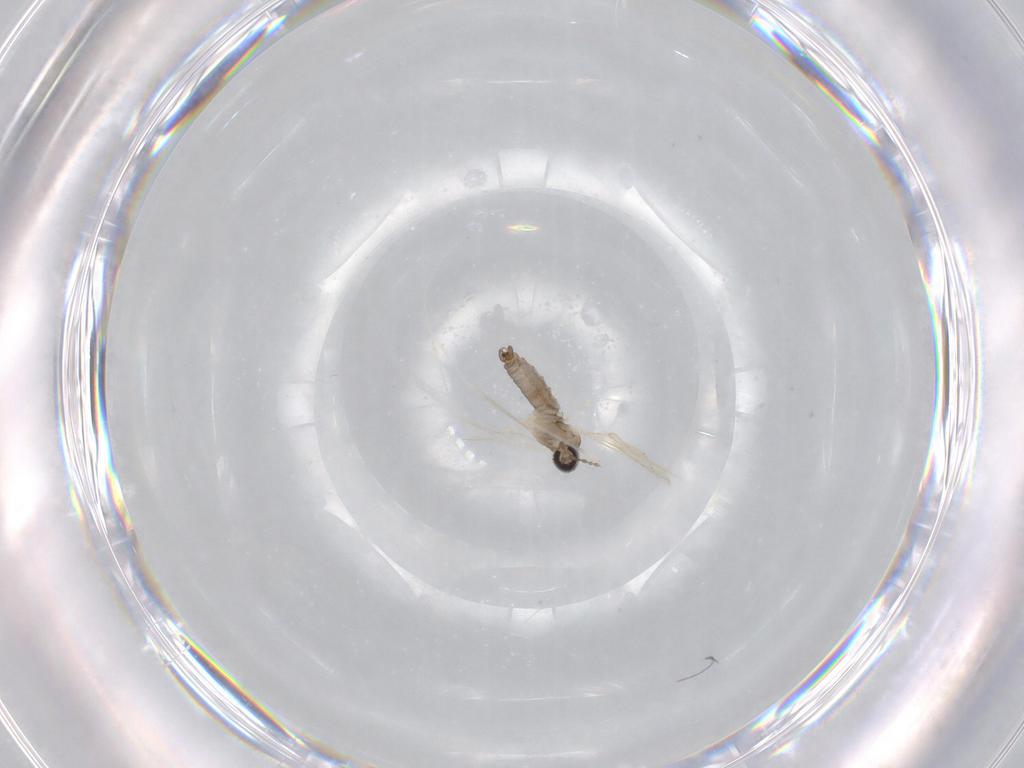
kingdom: Animalia
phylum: Arthropoda
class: Insecta
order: Diptera
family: Cecidomyiidae
